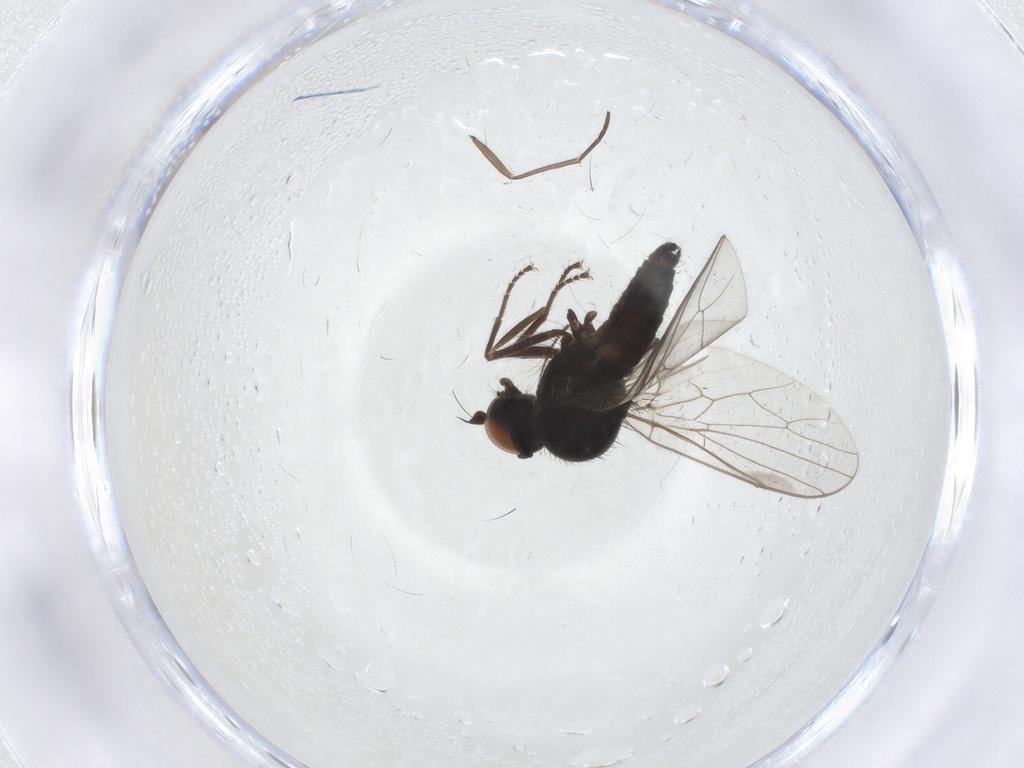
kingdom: Animalia
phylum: Arthropoda
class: Insecta
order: Diptera
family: Hybotidae
